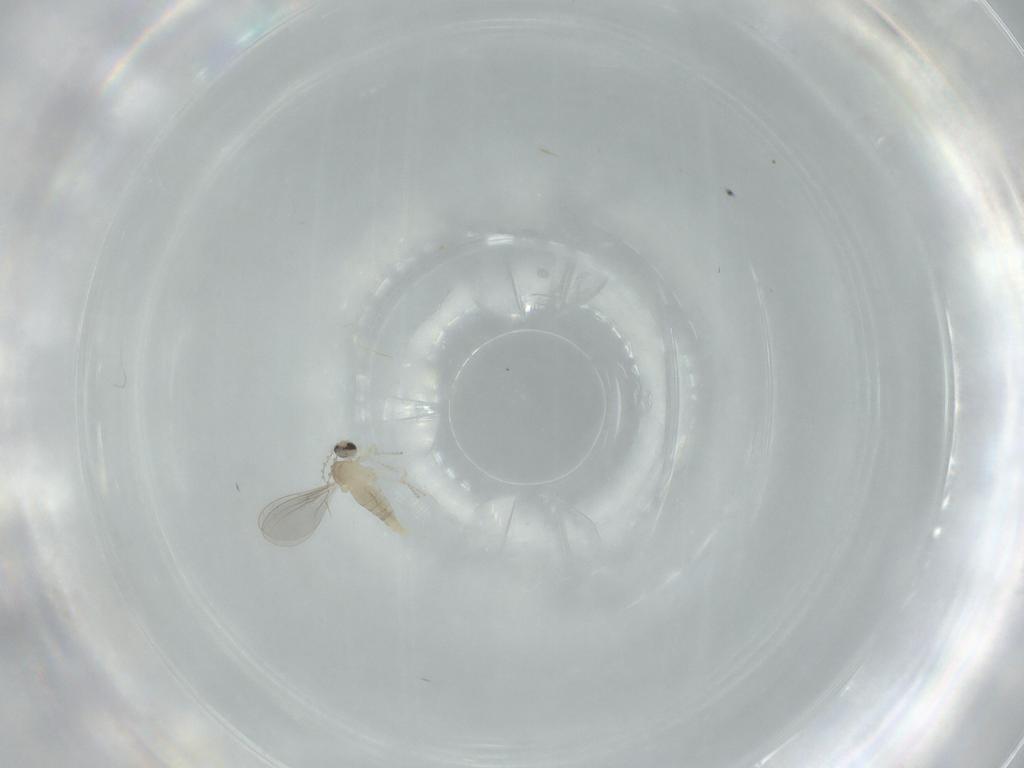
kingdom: Animalia
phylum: Arthropoda
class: Insecta
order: Diptera
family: Cecidomyiidae
